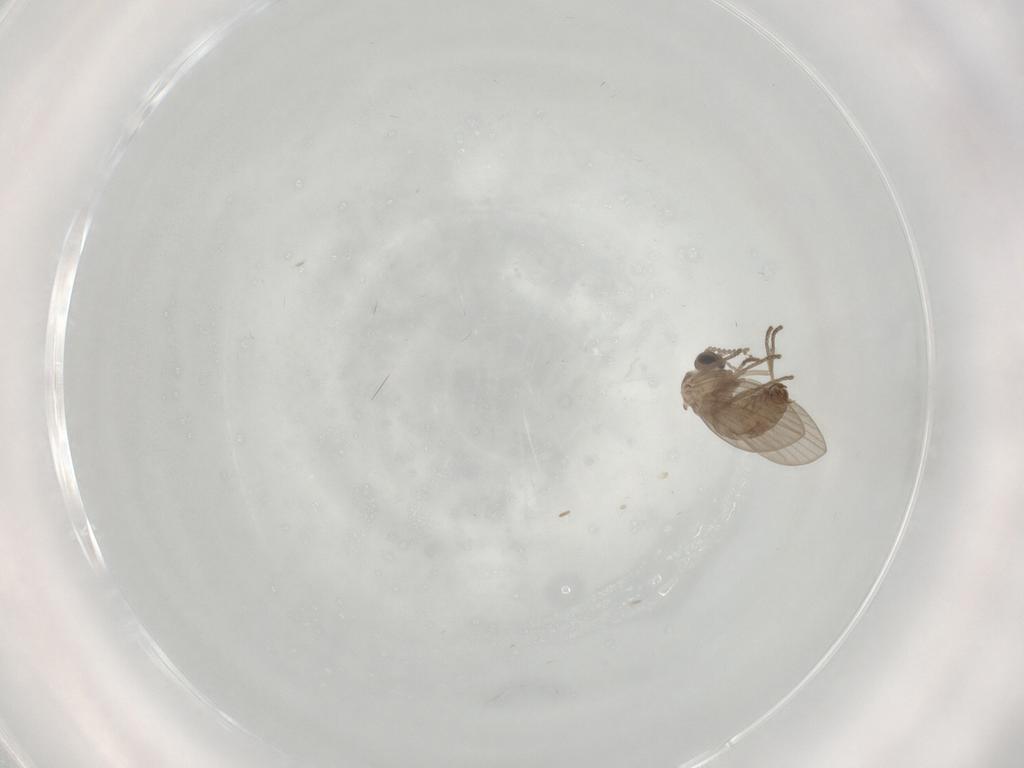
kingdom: Animalia
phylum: Arthropoda
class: Insecta
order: Diptera
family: Psychodidae
